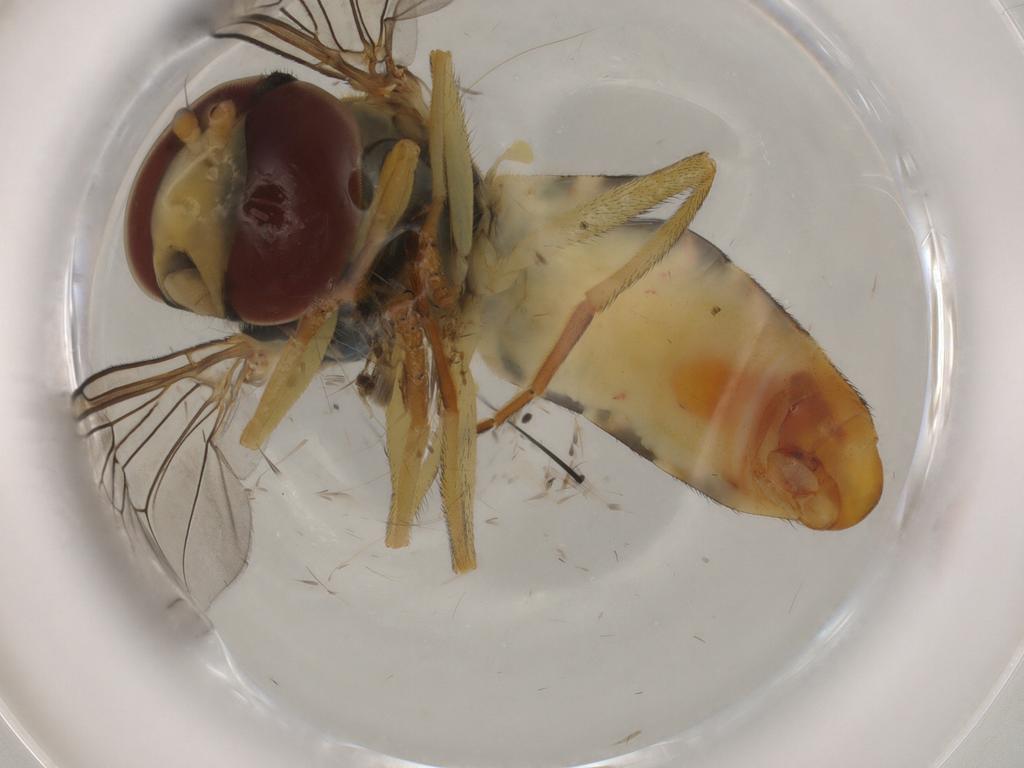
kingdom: Animalia
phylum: Arthropoda
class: Insecta
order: Diptera
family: Syrphidae
